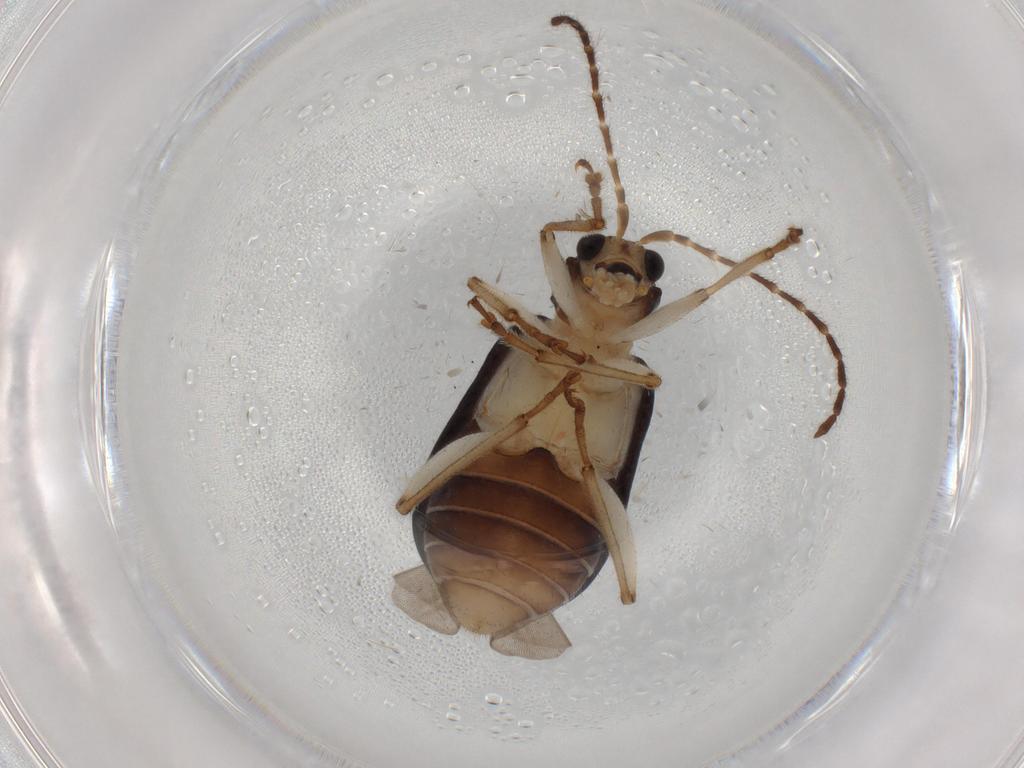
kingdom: Animalia
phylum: Arthropoda
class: Insecta
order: Coleoptera
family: Chrysomelidae
